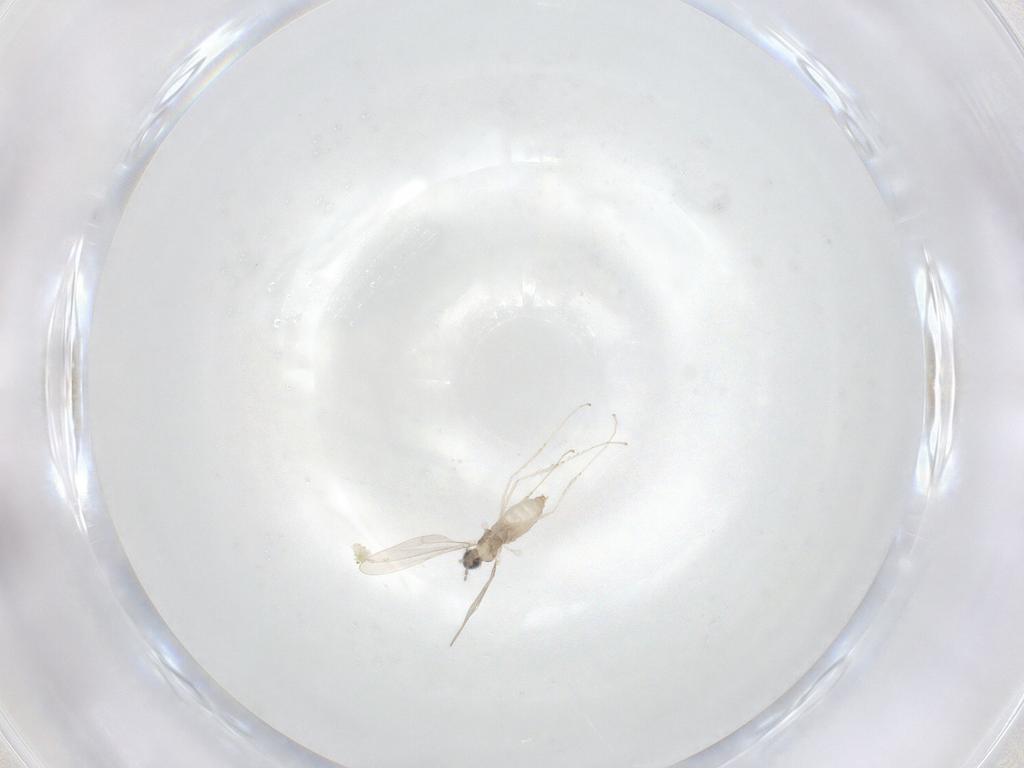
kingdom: Animalia
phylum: Arthropoda
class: Insecta
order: Diptera
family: Cecidomyiidae
